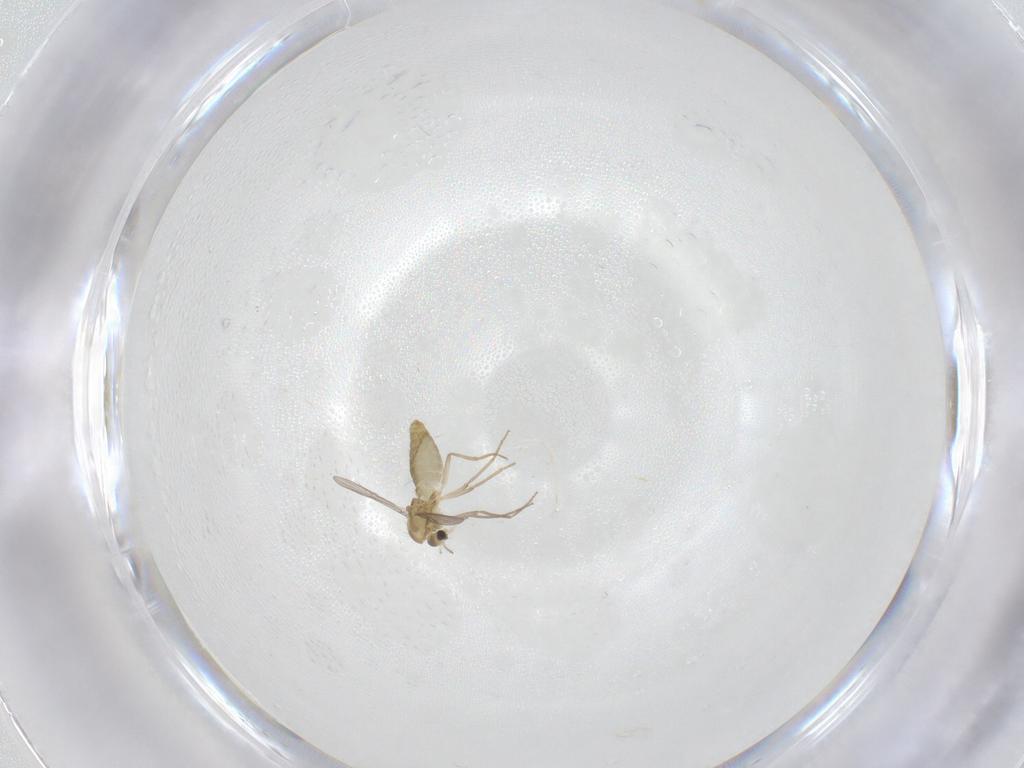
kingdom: Animalia
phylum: Arthropoda
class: Insecta
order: Diptera
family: Chironomidae
